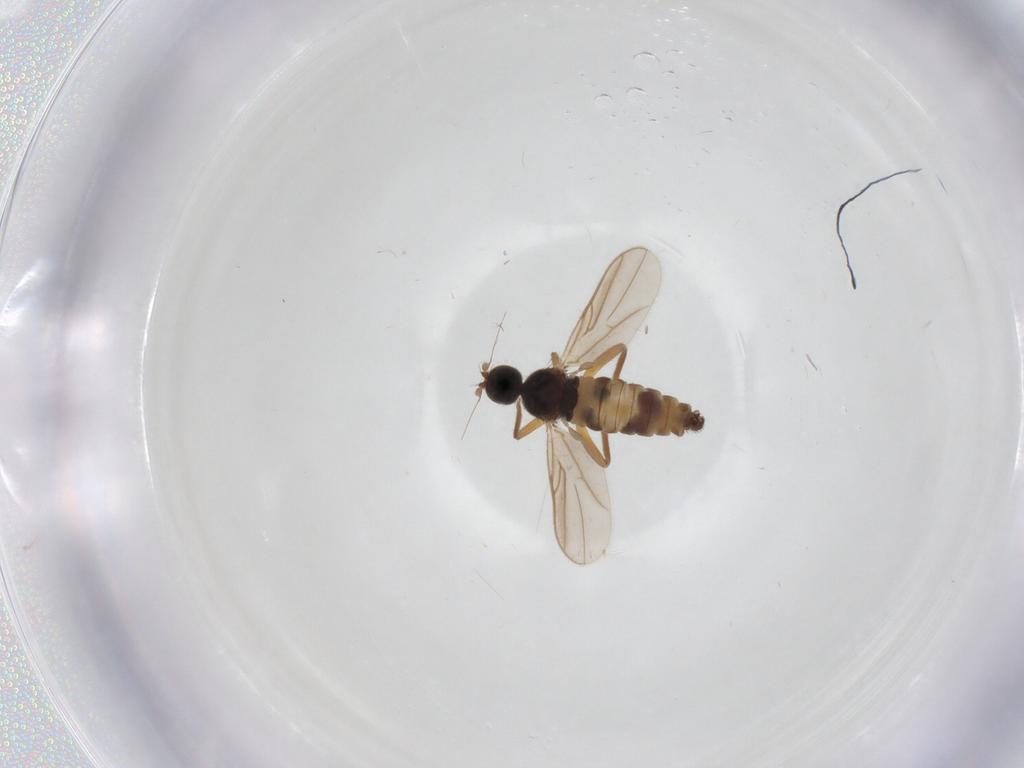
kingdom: Animalia
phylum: Arthropoda
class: Insecta
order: Diptera
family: Hybotidae
